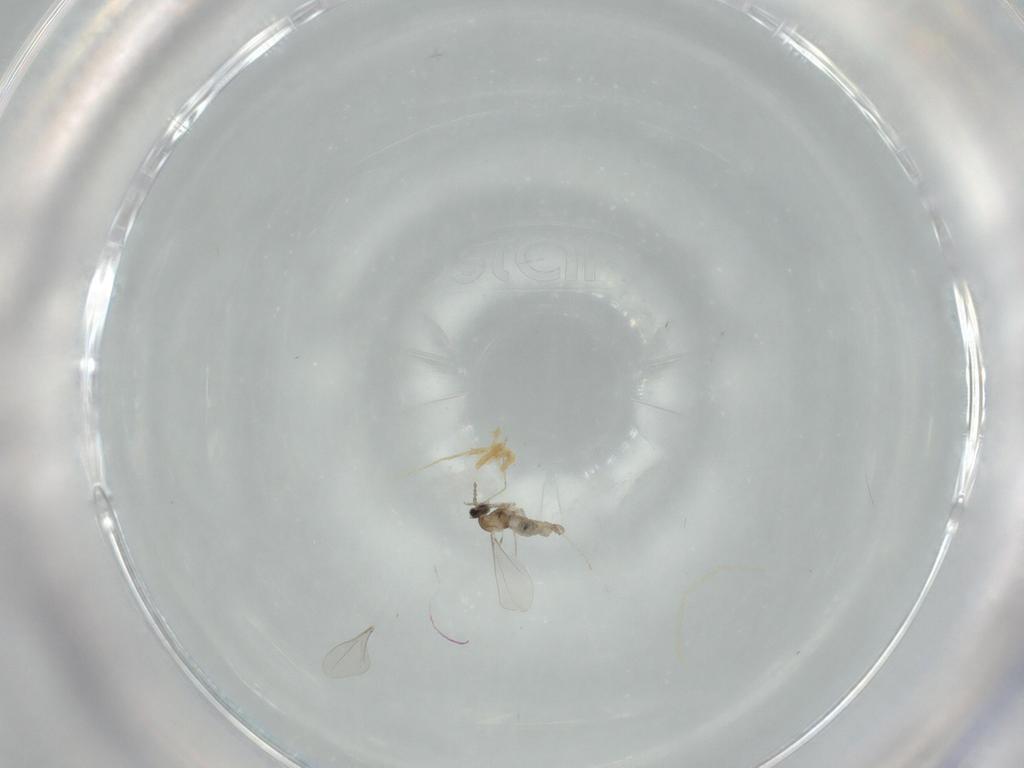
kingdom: Animalia
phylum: Arthropoda
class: Insecta
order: Diptera
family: Cecidomyiidae
